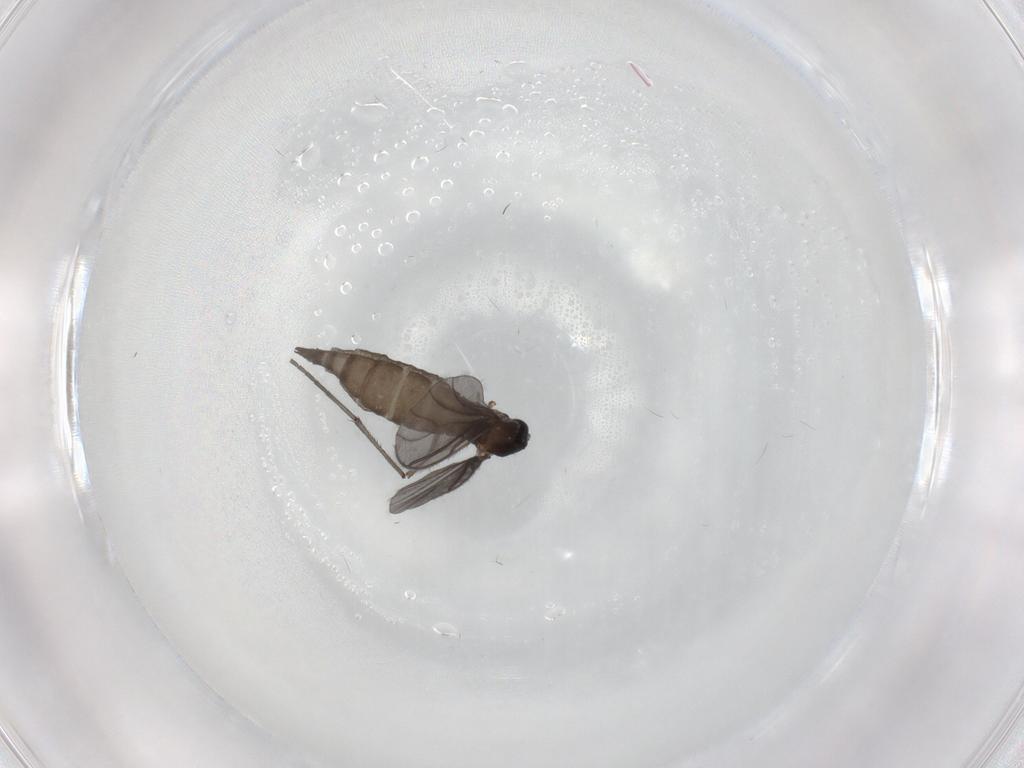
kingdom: Animalia
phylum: Arthropoda
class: Insecta
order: Diptera
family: Sciaridae
